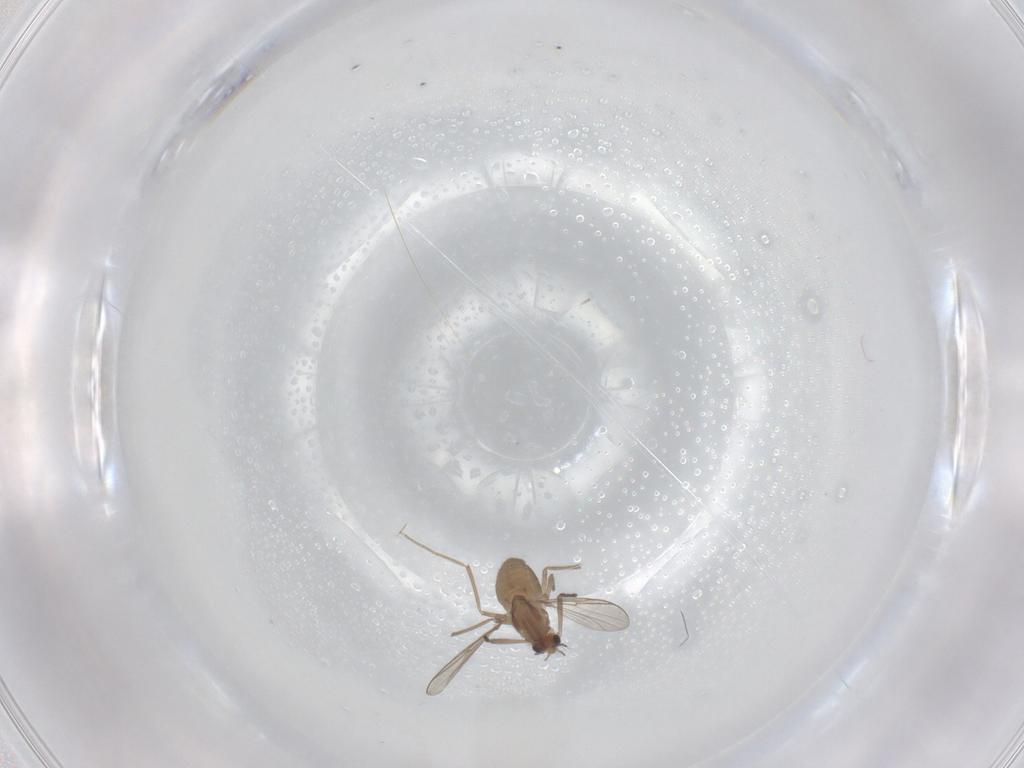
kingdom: Animalia
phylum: Arthropoda
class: Insecta
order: Diptera
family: Chironomidae
